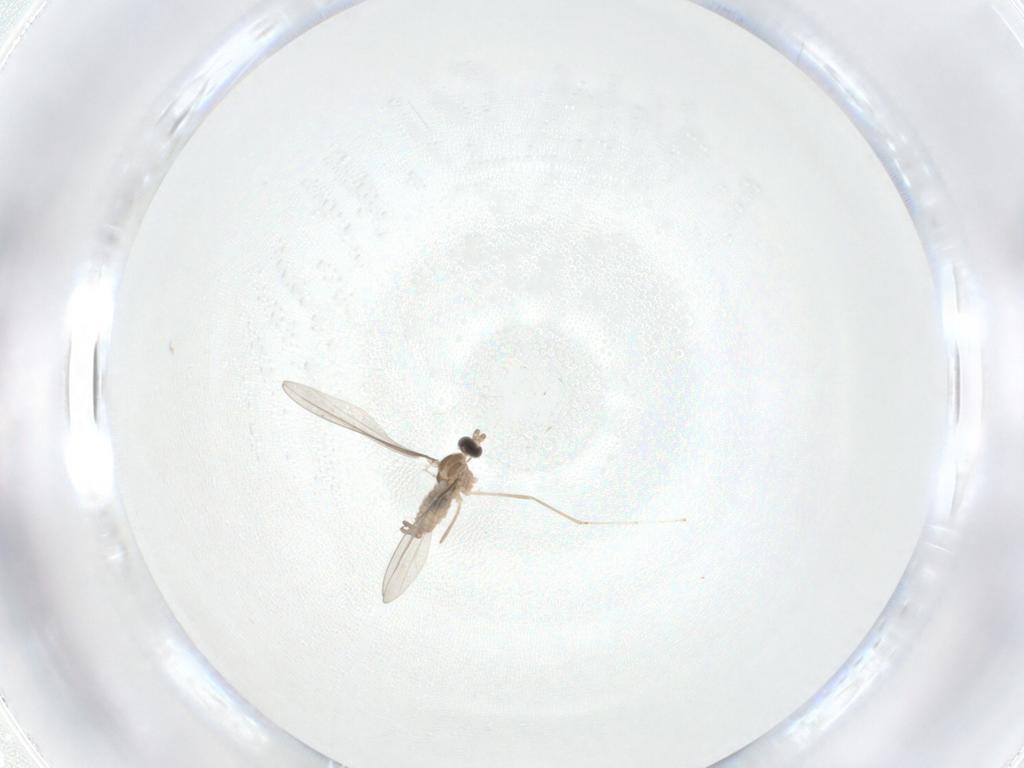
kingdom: Animalia
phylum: Arthropoda
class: Insecta
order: Diptera
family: Cecidomyiidae
